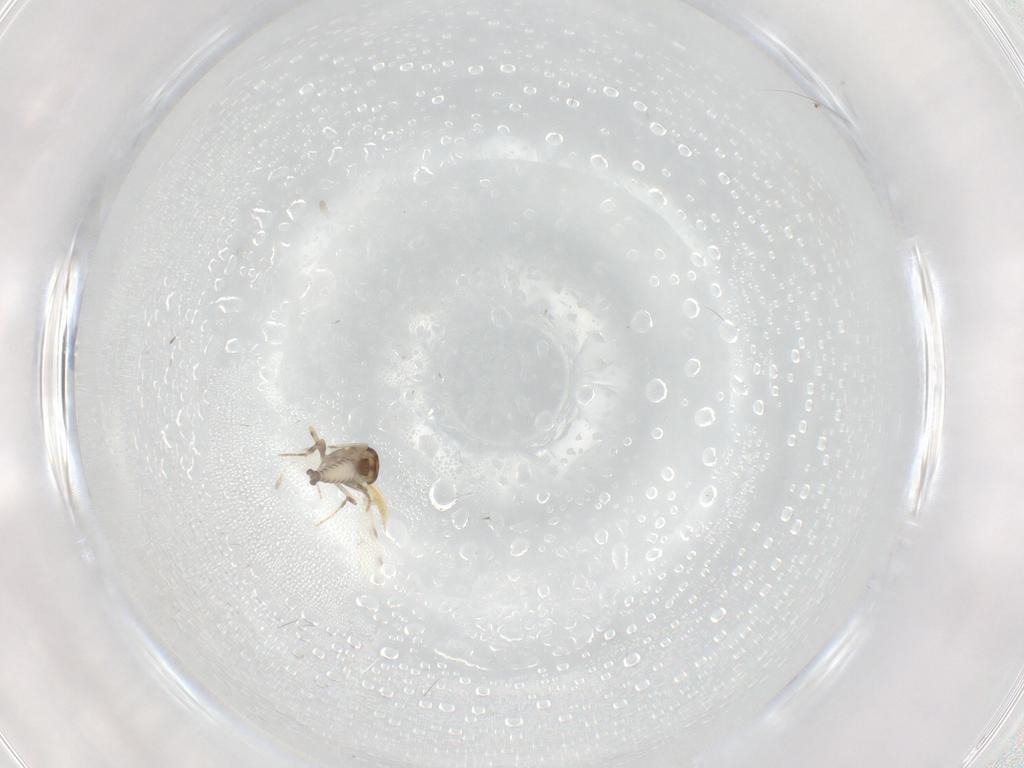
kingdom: Animalia
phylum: Arthropoda
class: Insecta
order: Diptera
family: Ceratopogonidae
